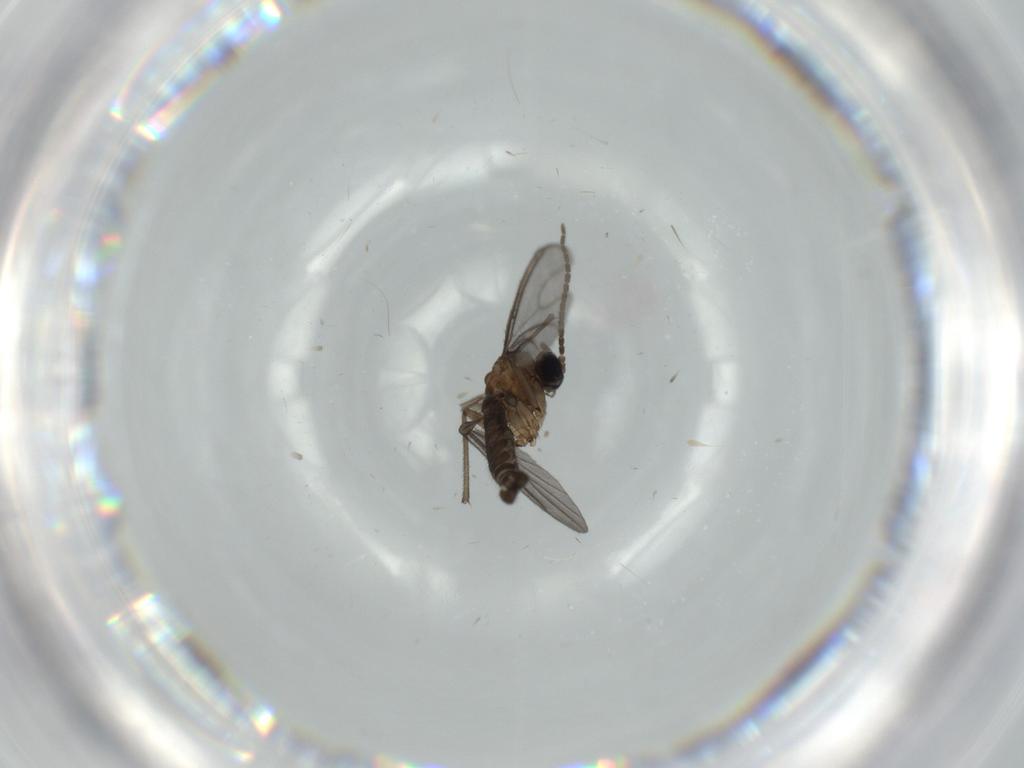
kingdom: Animalia
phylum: Arthropoda
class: Insecta
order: Diptera
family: Sciaridae
